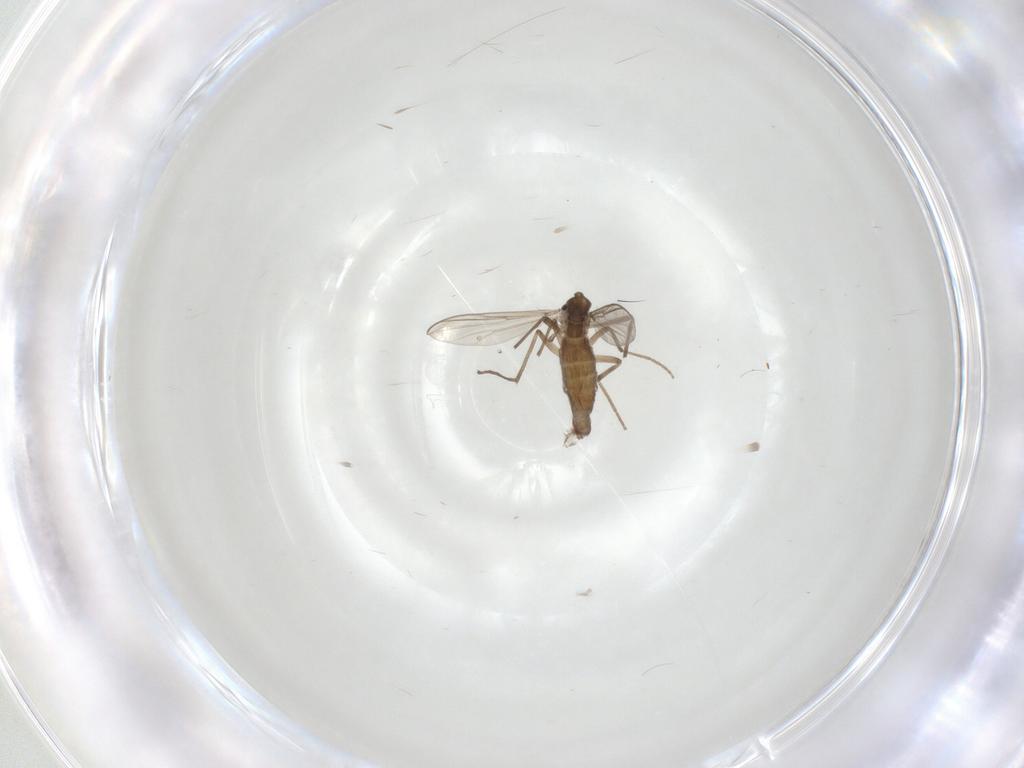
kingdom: Animalia
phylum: Arthropoda
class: Insecta
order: Diptera
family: Chironomidae
